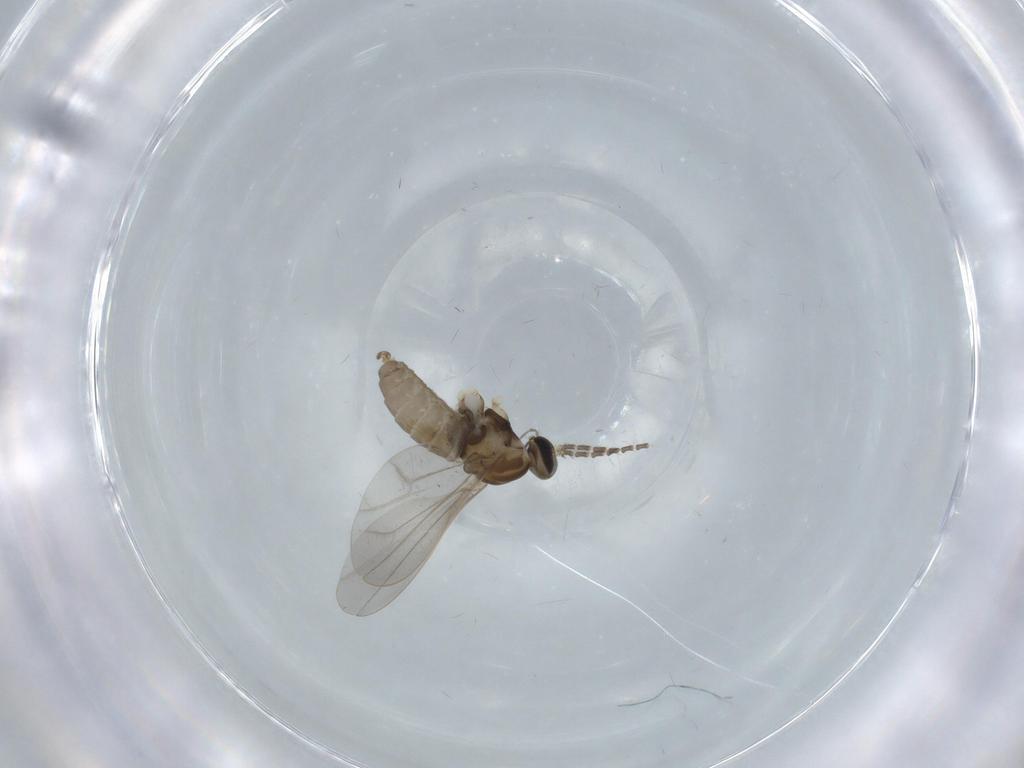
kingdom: Animalia
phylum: Arthropoda
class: Insecta
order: Diptera
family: Cecidomyiidae
